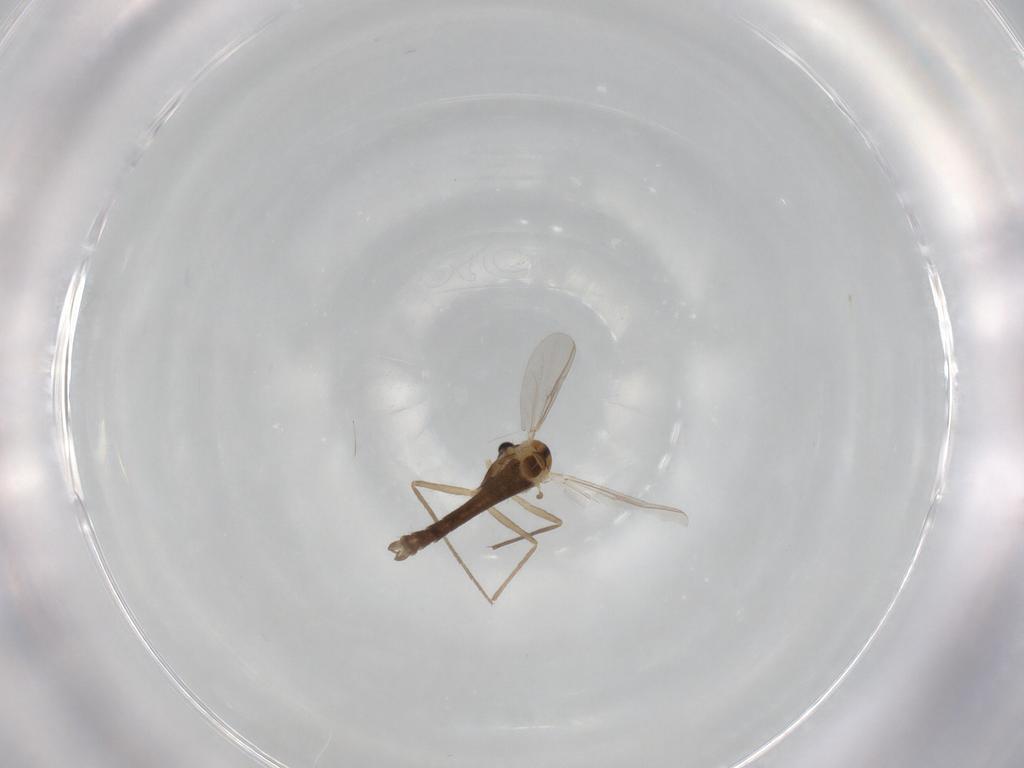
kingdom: Animalia
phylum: Arthropoda
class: Insecta
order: Diptera
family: Chironomidae
